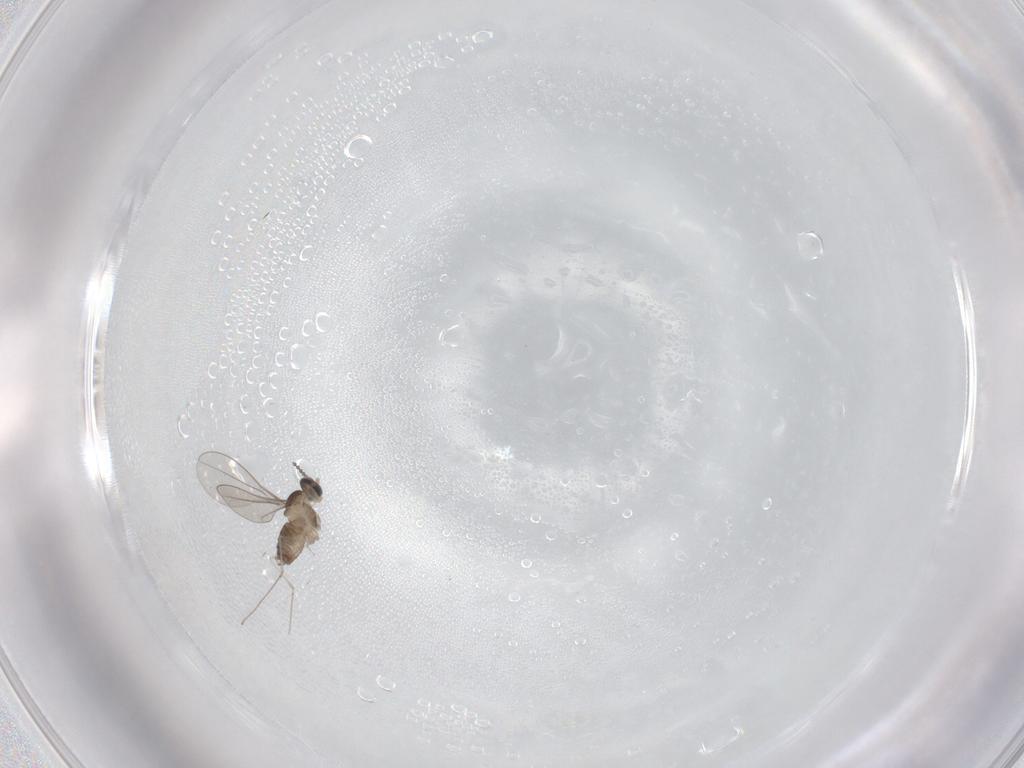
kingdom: Animalia
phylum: Arthropoda
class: Insecta
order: Diptera
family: Cecidomyiidae
